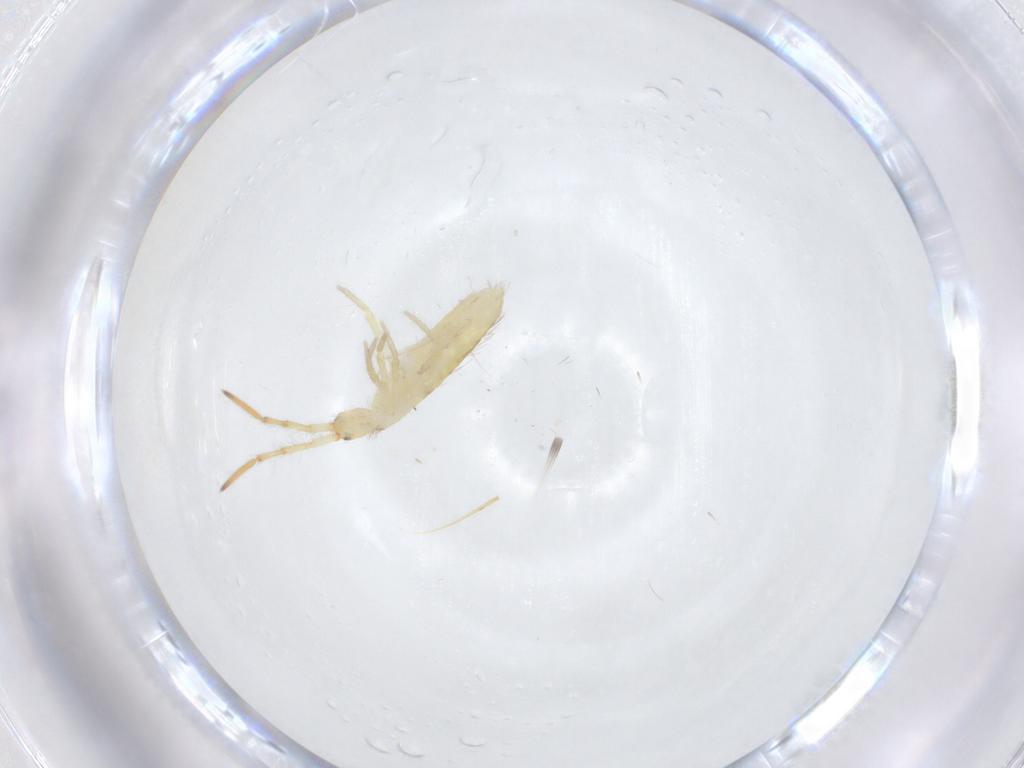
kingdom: Animalia
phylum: Arthropoda
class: Collembola
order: Entomobryomorpha
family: Entomobryidae
